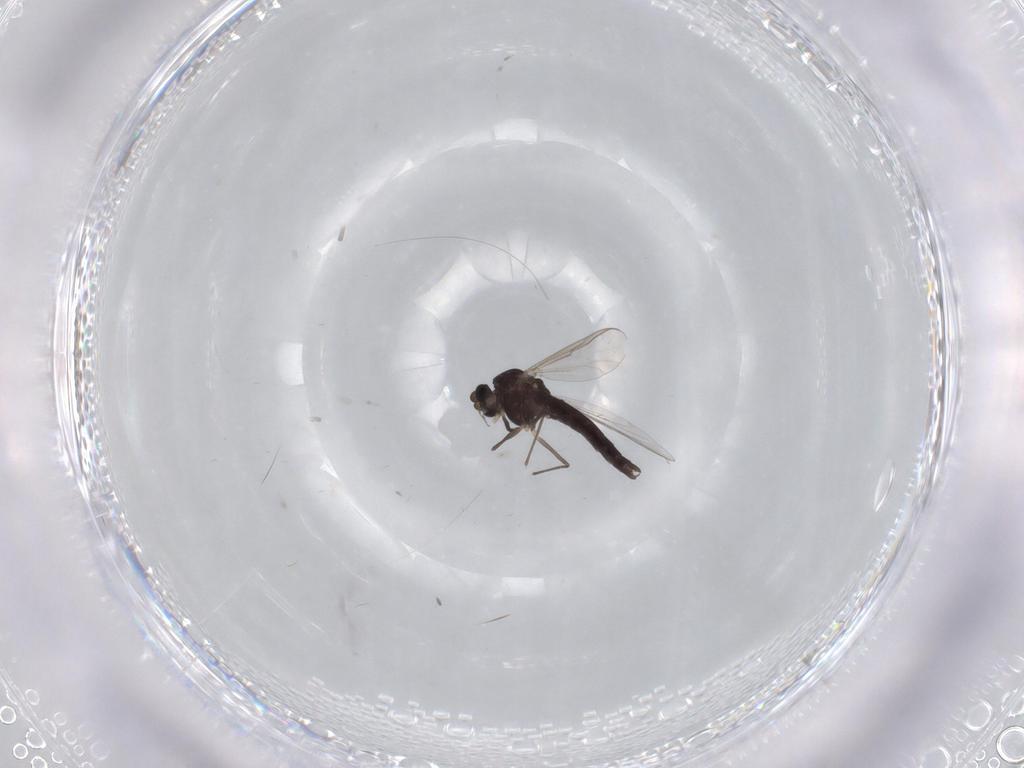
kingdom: Animalia
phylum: Arthropoda
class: Insecta
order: Diptera
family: Chironomidae
